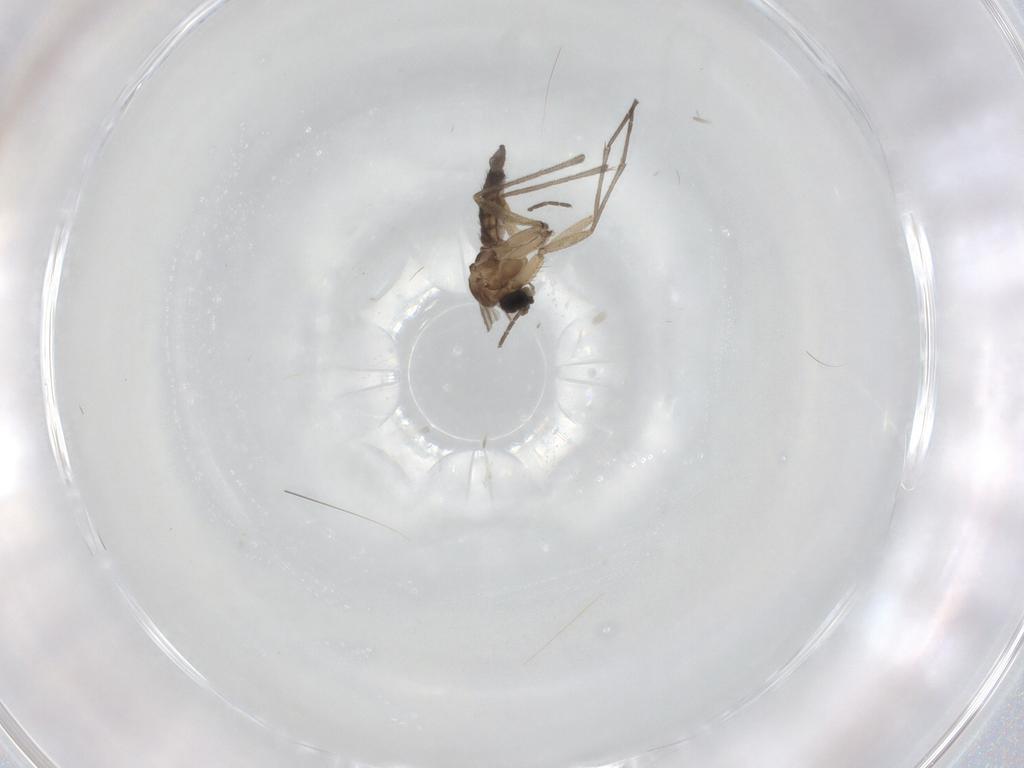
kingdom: Animalia
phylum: Arthropoda
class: Insecta
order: Diptera
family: Sciaridae
